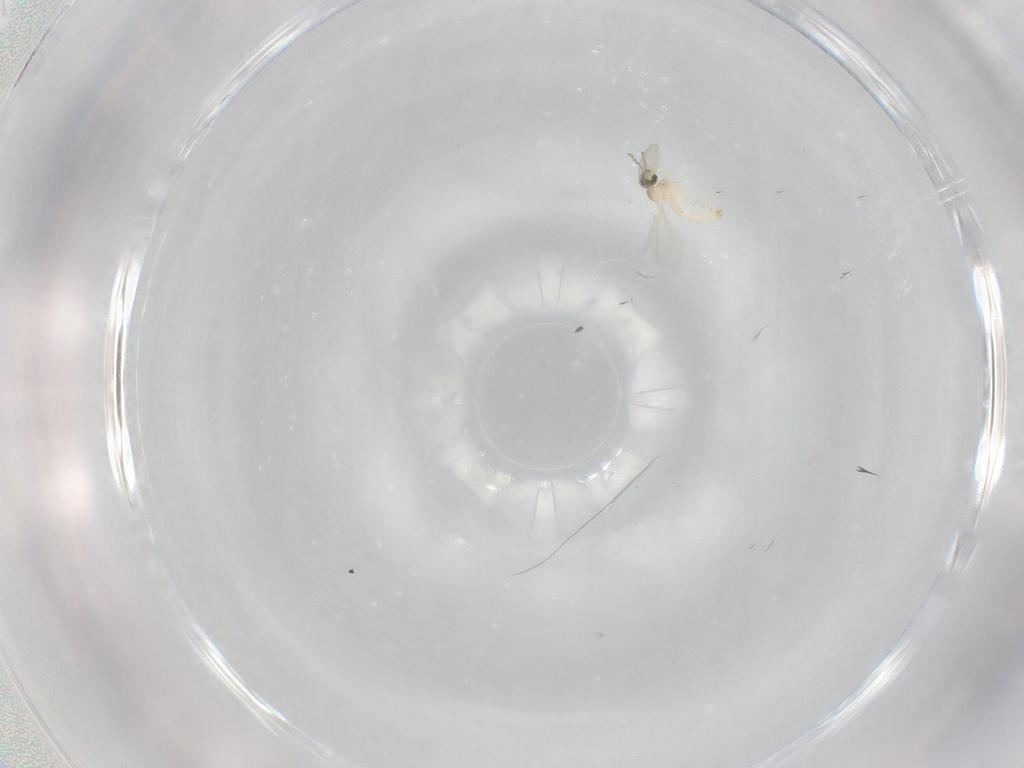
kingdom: Animalia
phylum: Arthropoda
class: Insecta
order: Diptera
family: Cecidomyiidae
